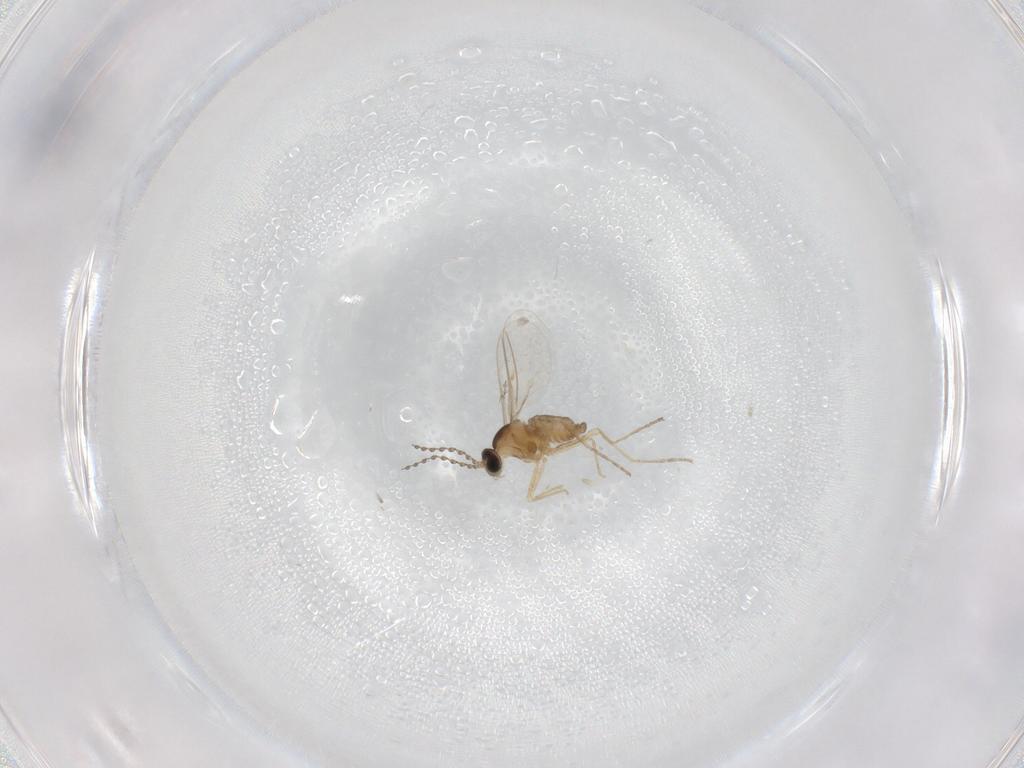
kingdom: Animalia
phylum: Arthropoda
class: Insecta
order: Diptera
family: Cecidomyiidae
